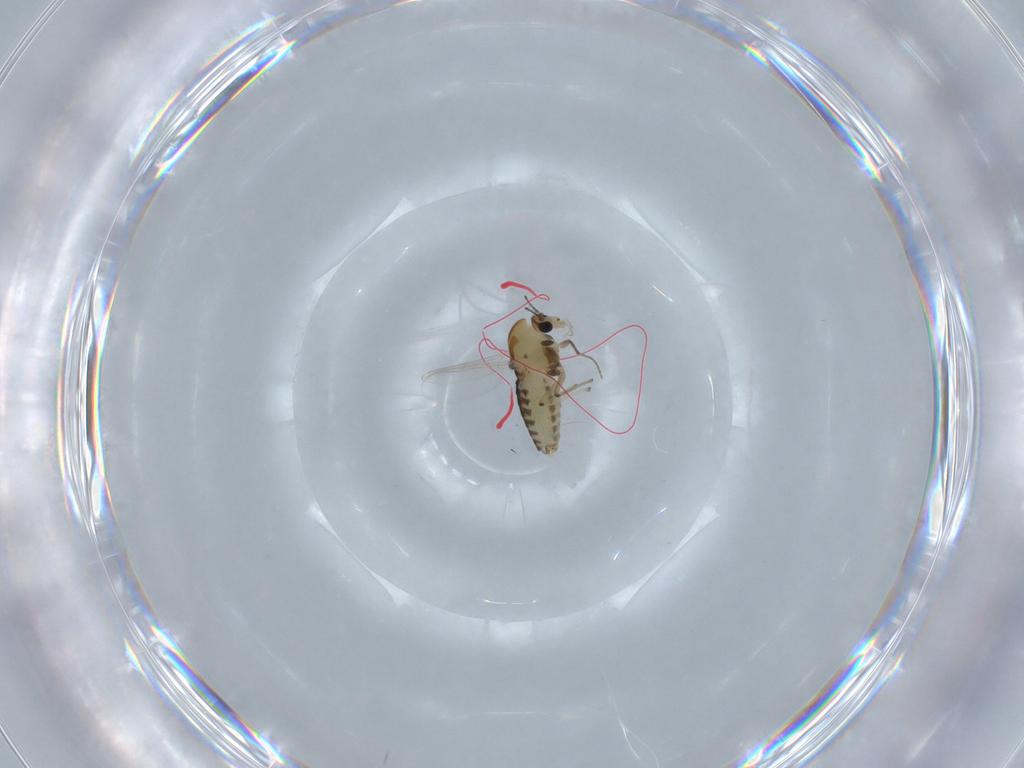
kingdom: Animalia
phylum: Arthropoda
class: Insecta
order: Diptera
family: Chironomidae
